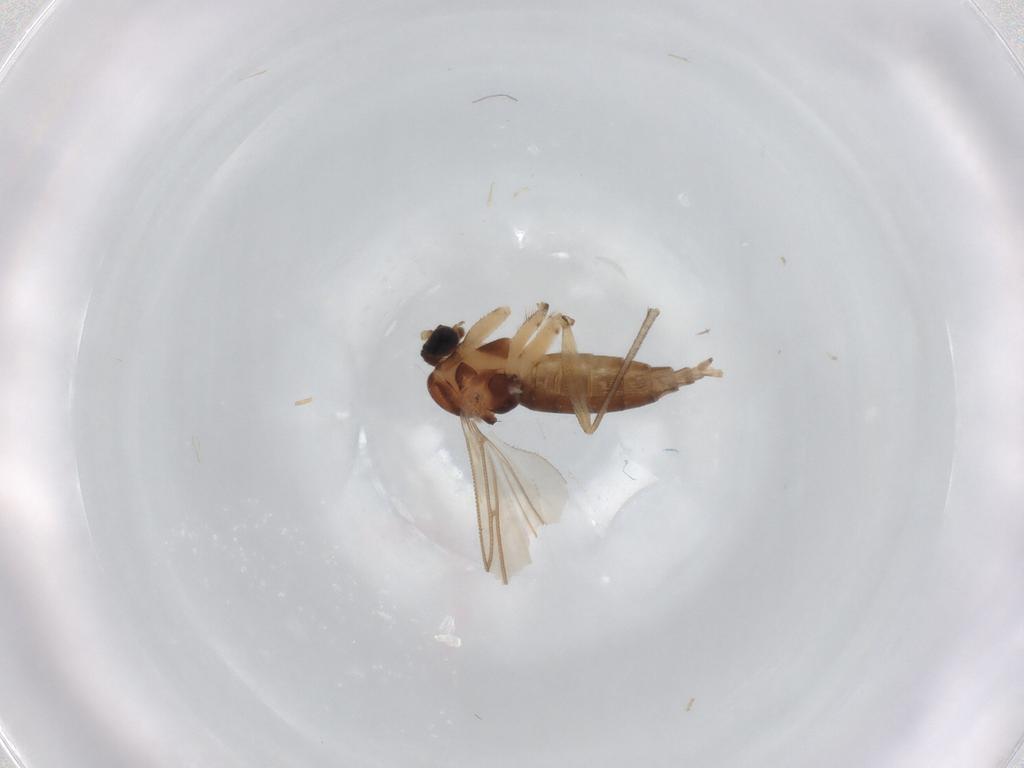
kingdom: Animalia
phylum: Arthropoda
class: Insecta
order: Diptera
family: Sciaridae
